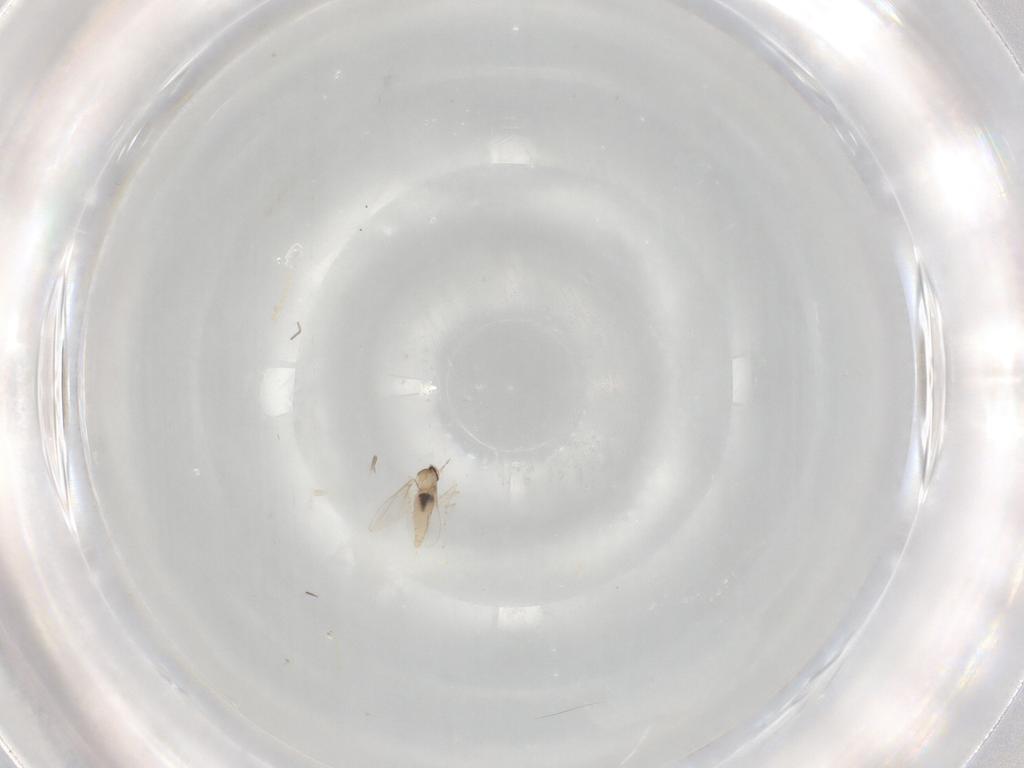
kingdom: Animalia
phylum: Arthropoda
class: Insecta
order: Diptera
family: Cecidomyiidae
